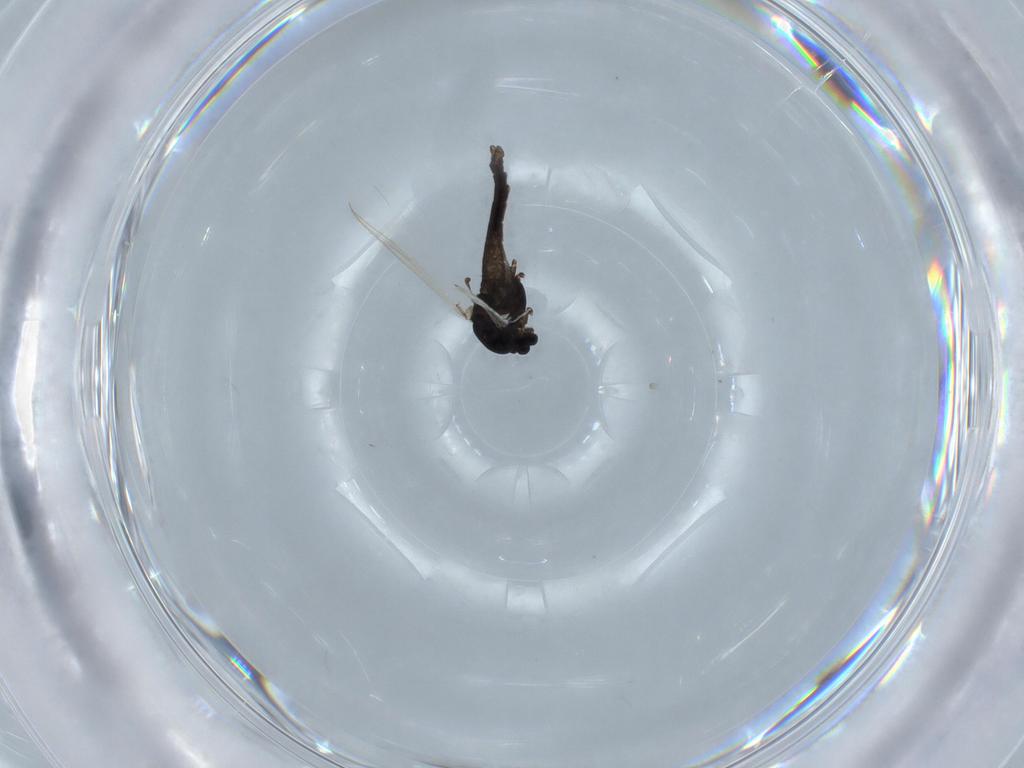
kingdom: Animalia
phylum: Arthropoda
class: Insecta
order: Diptera
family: Chironomidae
